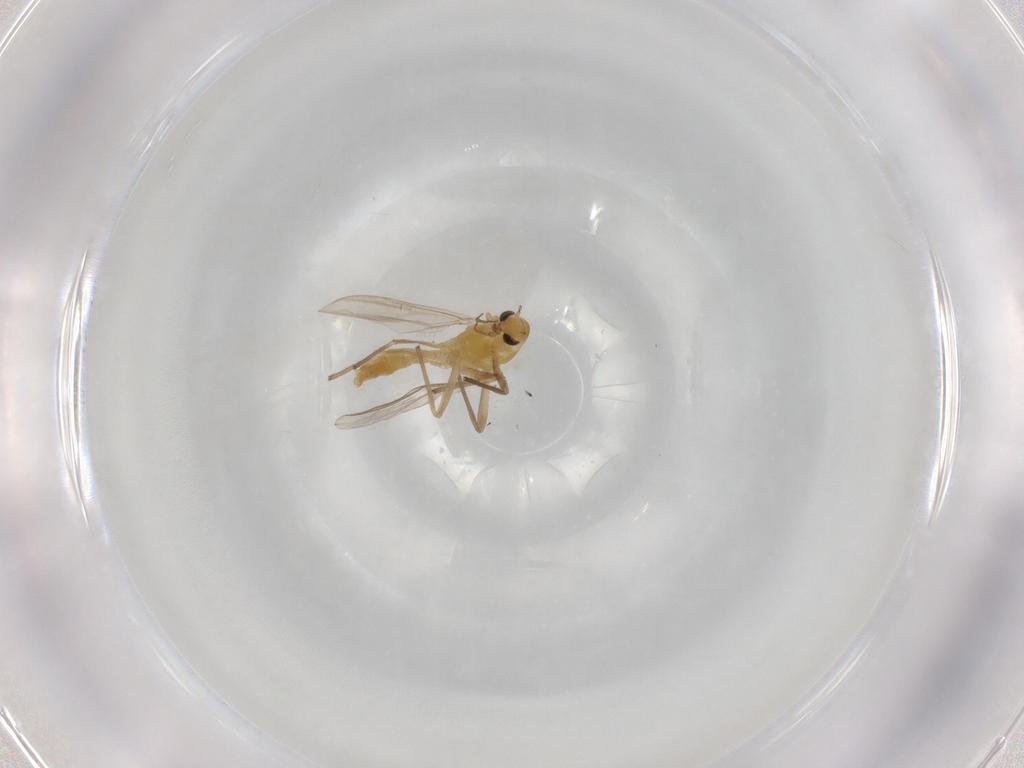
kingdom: Animalia
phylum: Arthropoda
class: Insecta
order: Diptera
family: Chironomidae
